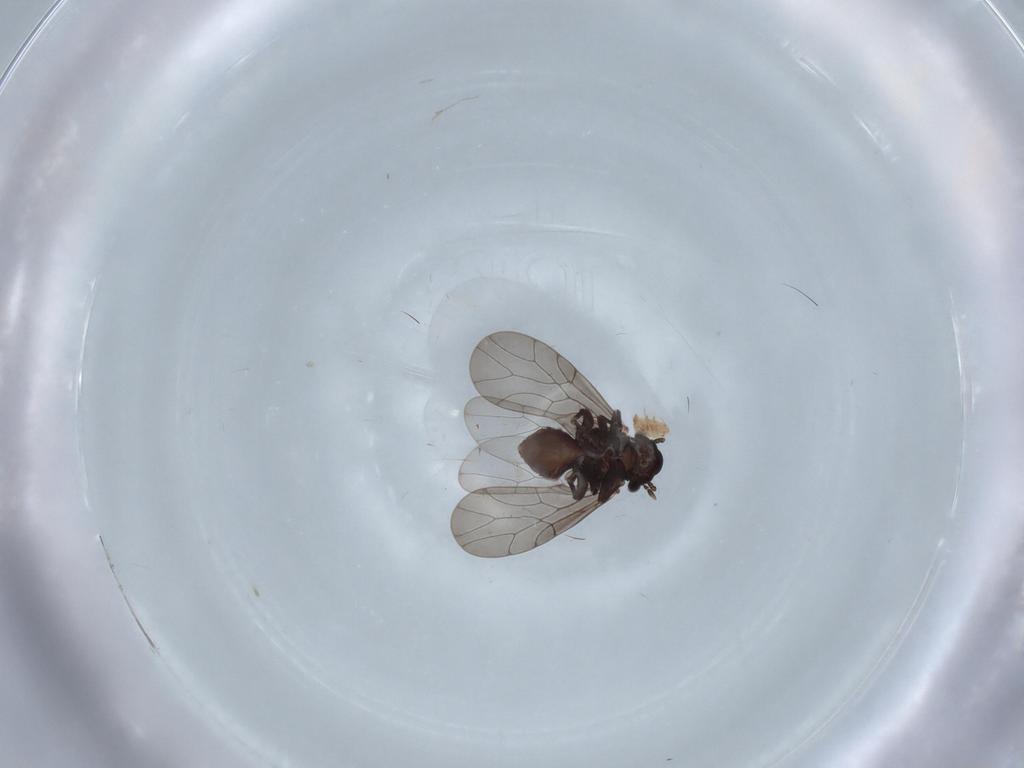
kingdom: Animalia
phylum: Arthropoda
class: Insecta
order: Psocodea
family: Lepidopsocidae
